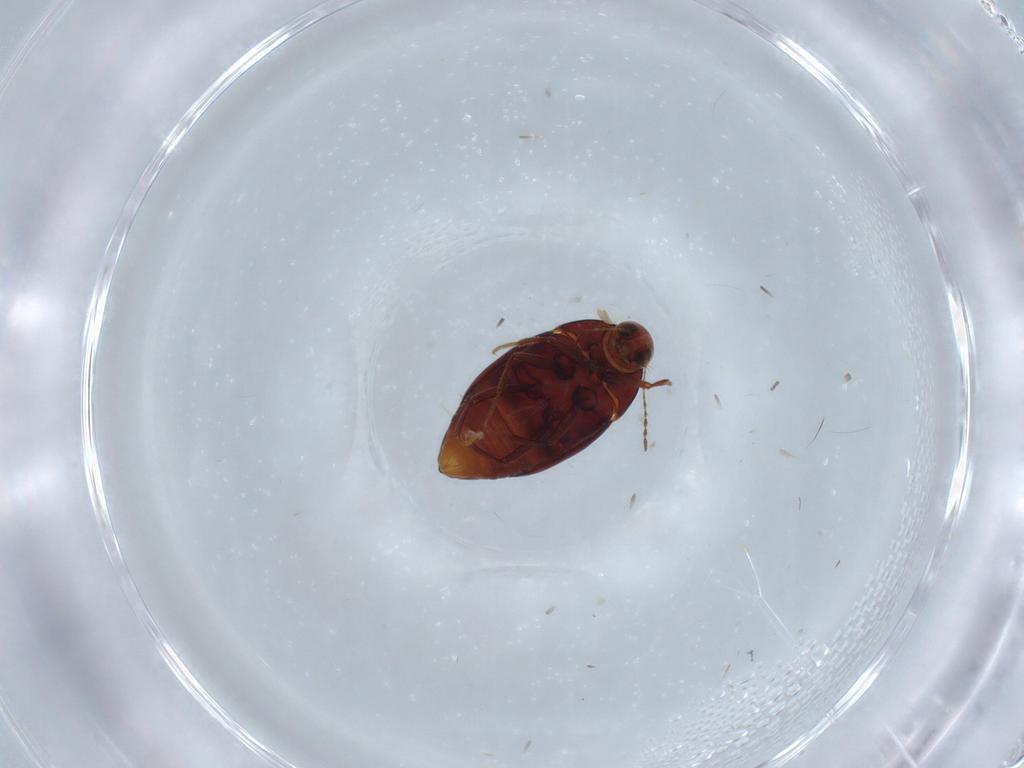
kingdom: Animalia
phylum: Arthropoda
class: Insecta
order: Coleoptera
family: Staphylinidae
